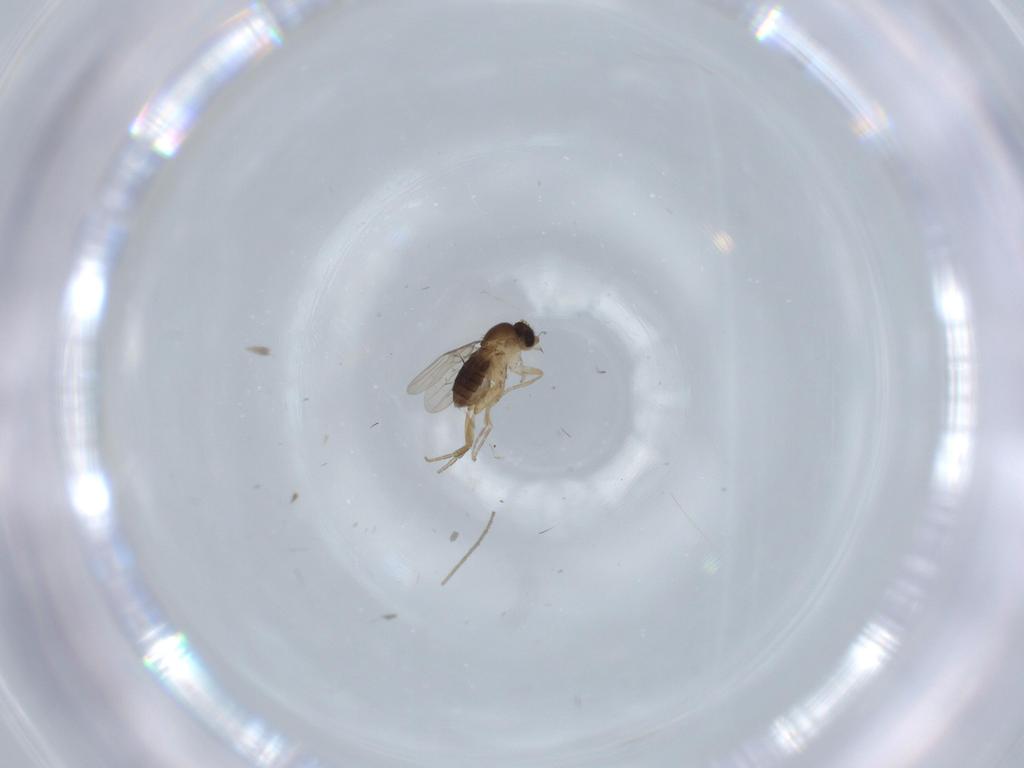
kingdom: Animalia
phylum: Arthropoda
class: Insecta
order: Diptera
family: Chironomidae
